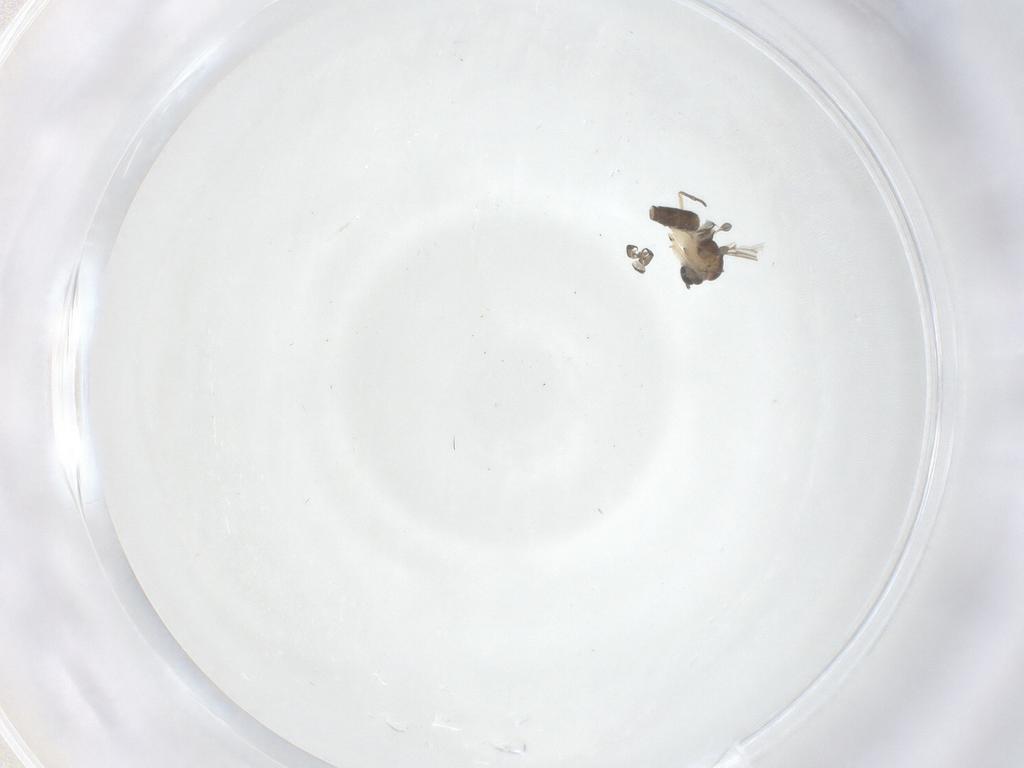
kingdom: Animalia
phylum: Arthropoda
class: Insecta
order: Diptera
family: Sciaridae
